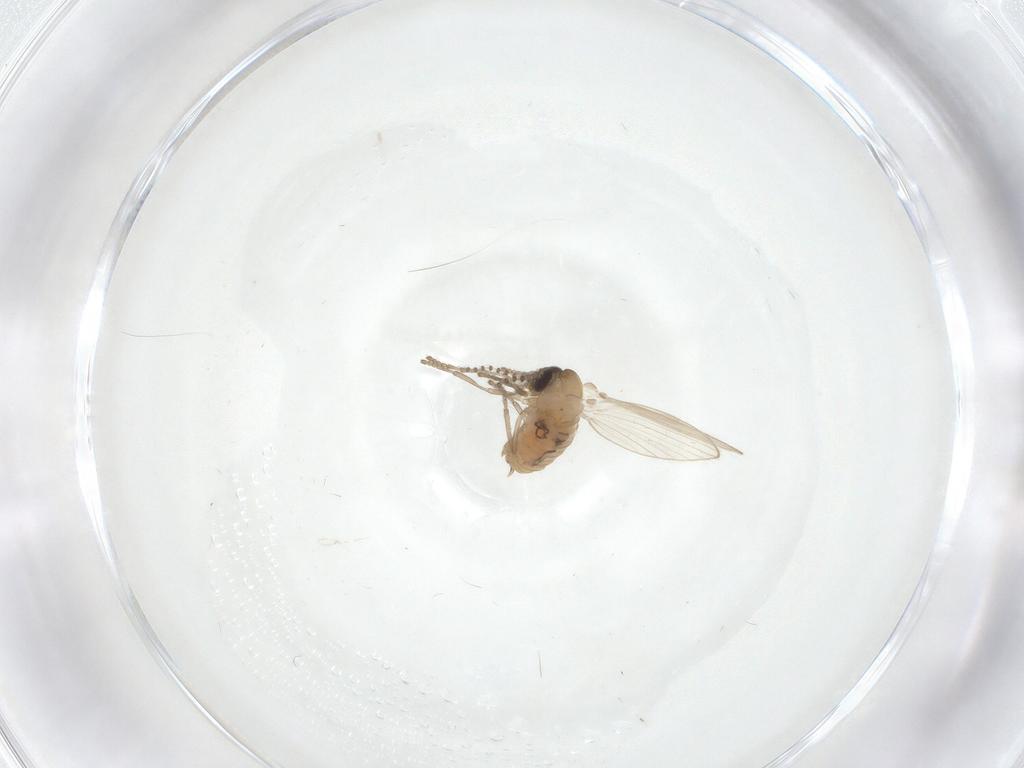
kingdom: Animalia
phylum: Arthropoda
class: Insecta
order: Diptera
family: Psychodidae
